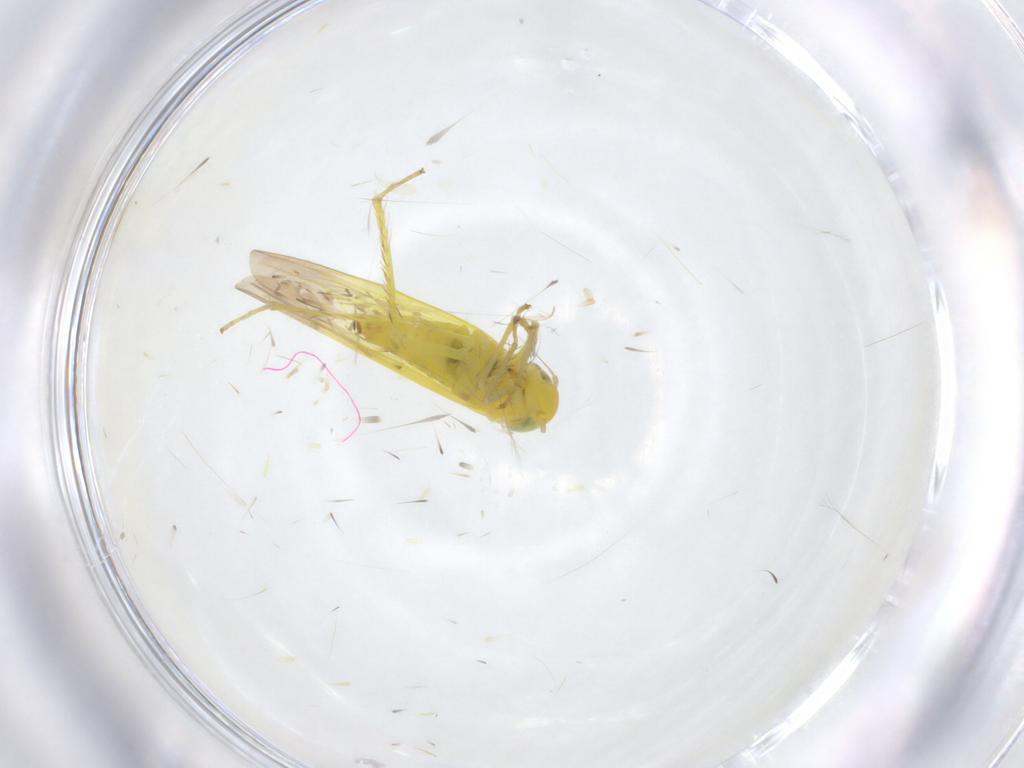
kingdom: Animalia
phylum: Arthropoda
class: Insecta
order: Hemiptera
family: Cicadellidae
